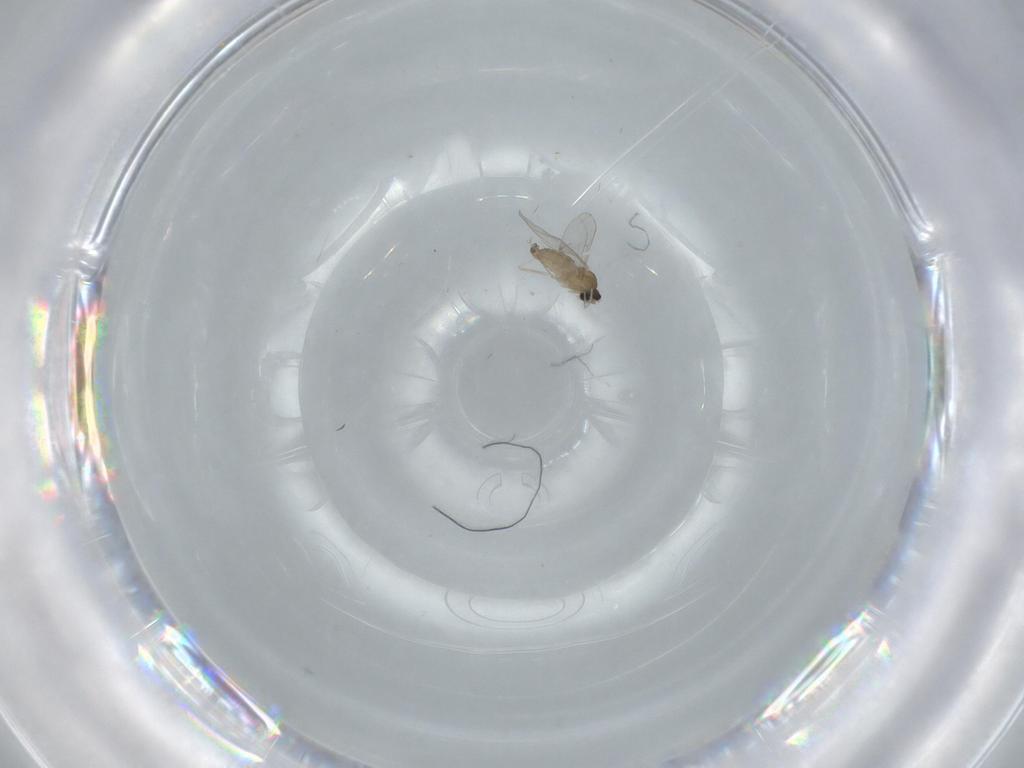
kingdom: Animalia
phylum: Arthropoda
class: Insecta
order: Diptera
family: Cecidomyiidae
